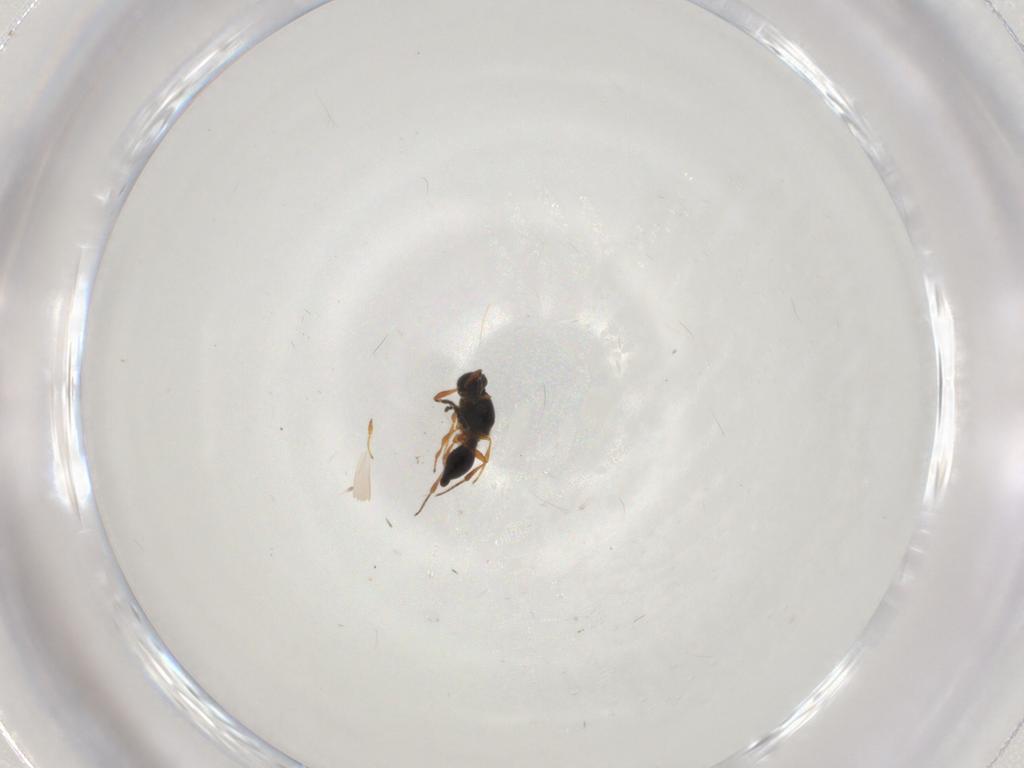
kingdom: Animalia
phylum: Arthropoda
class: Insecta
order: Hymenoptera
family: Platygastridae
